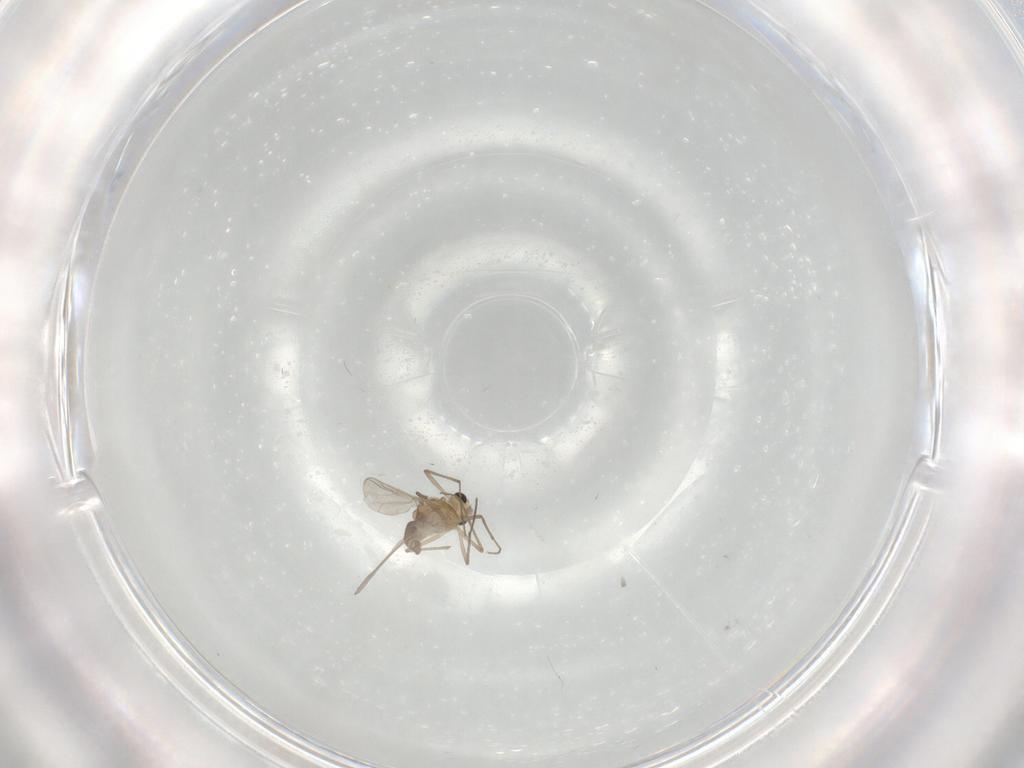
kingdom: Animalia
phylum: Arthropoda
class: Insecta
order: Diptera
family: Chironomidae
